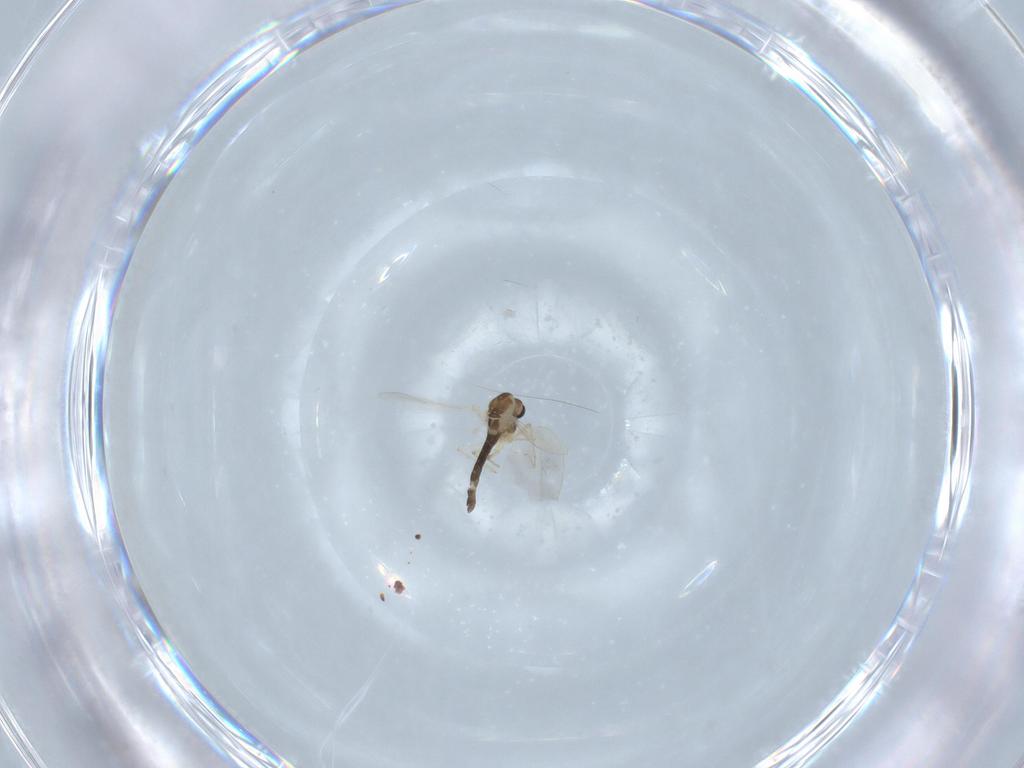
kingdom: Animalia
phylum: Arthropoda
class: Insecta
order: Diptera
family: Chironomidae
